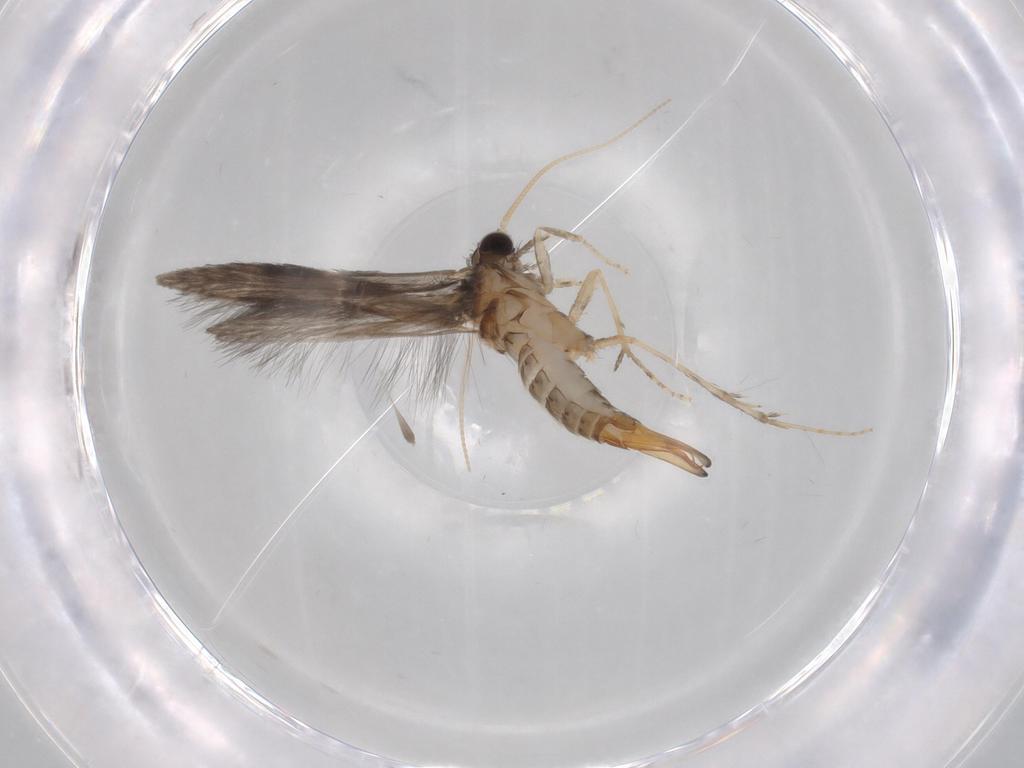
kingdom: Animalia
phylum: Arthropoda
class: Insecta
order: Trichoptera
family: Hydroptilidae
